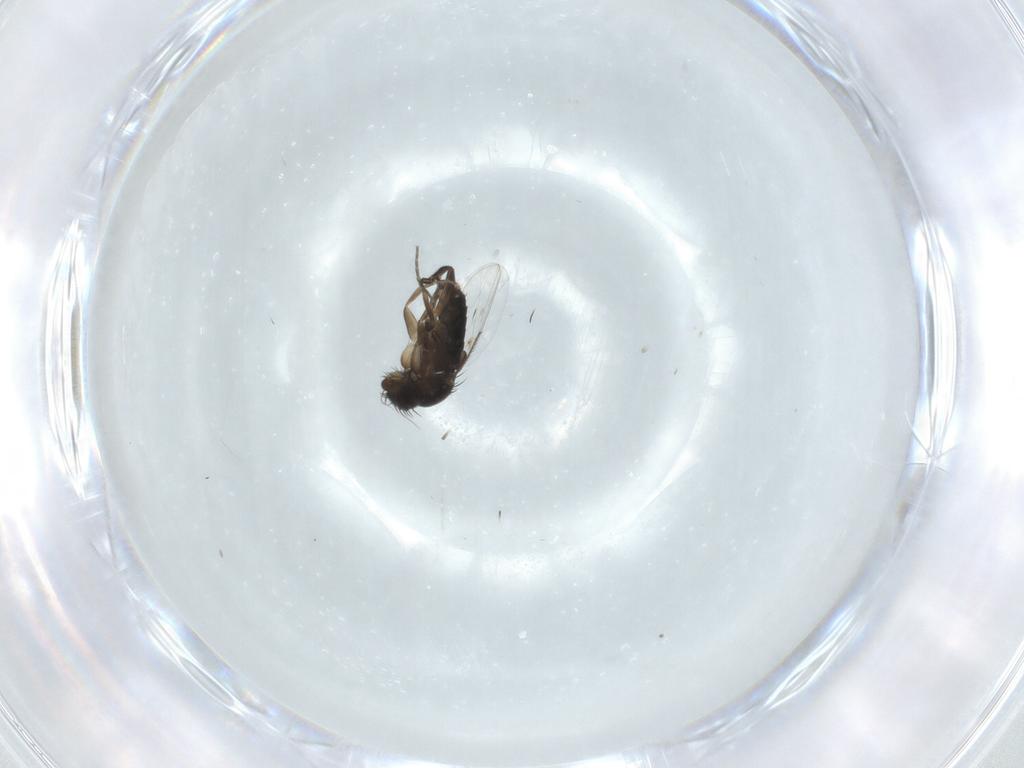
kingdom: Animalia
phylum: Arthropoda
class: Insecta
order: Diptera
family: Phoridae
